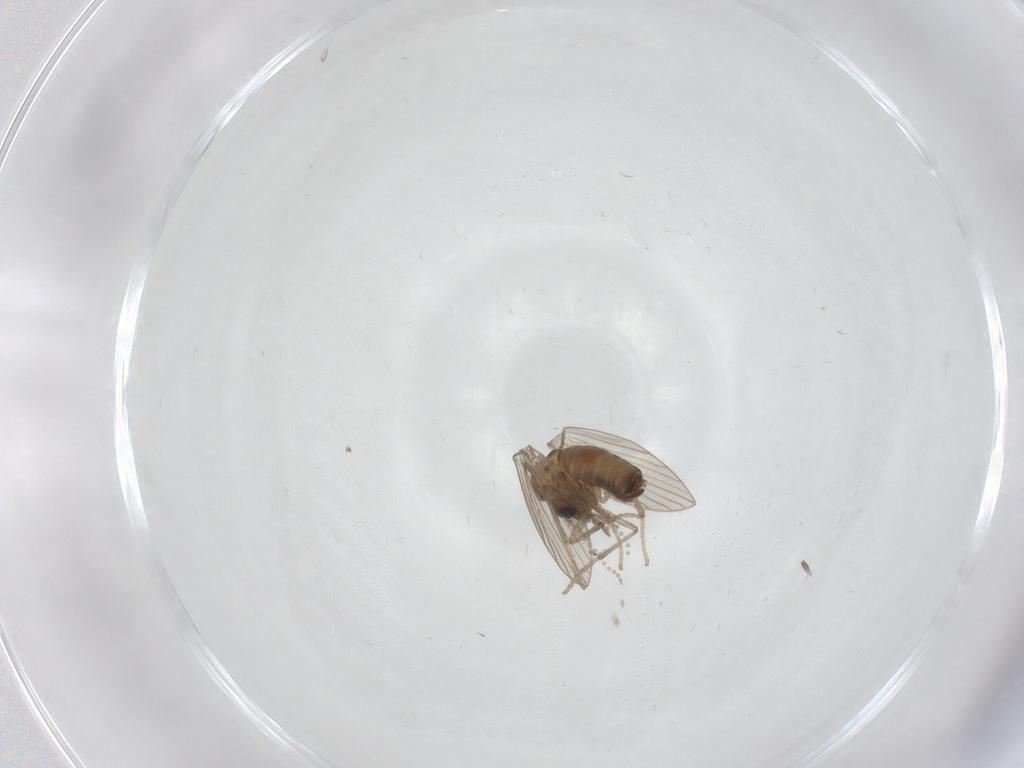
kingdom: Animalia
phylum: Arthropoda
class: Insecta
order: Diptera
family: Psychodidae
